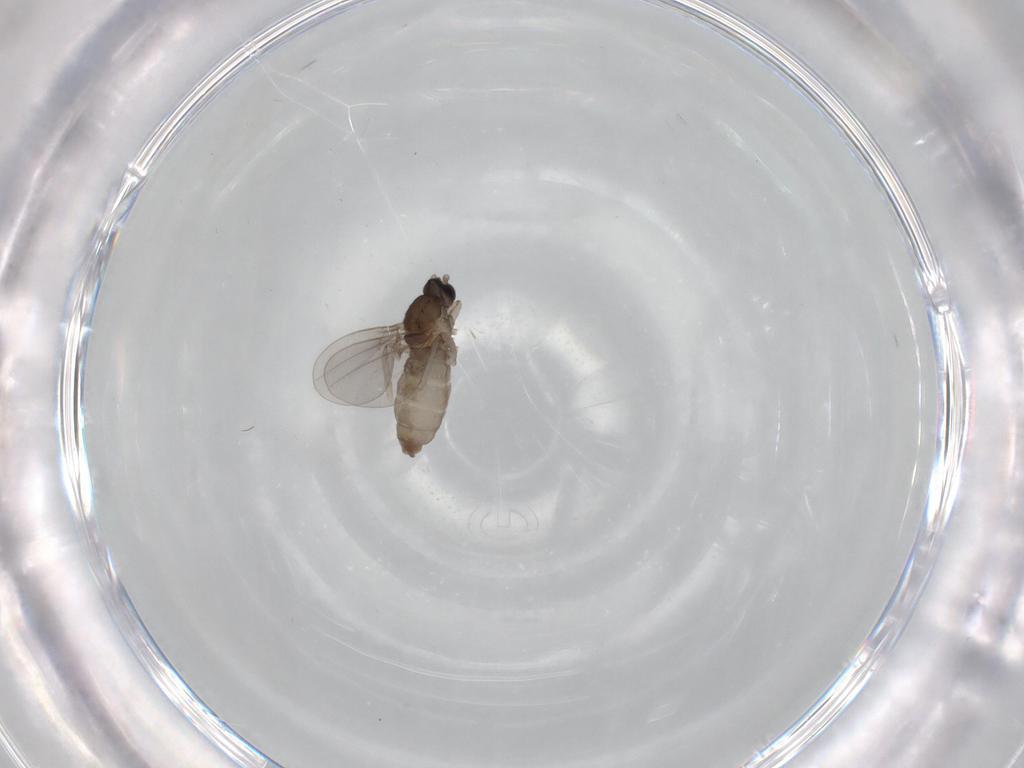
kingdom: Animalia
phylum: Arthropoda
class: Insecta
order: Diptera
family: Cecidomyiidae
